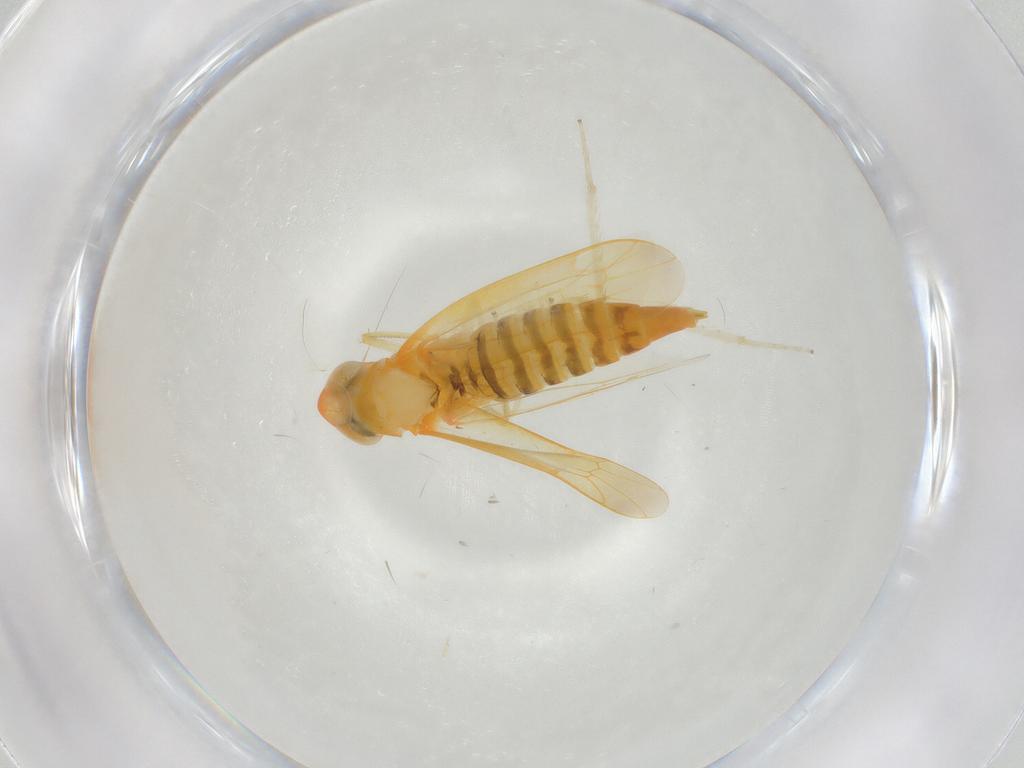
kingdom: Animalia
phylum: Arthropoda
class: Insecta
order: Hemiptera
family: Cicadellidae
